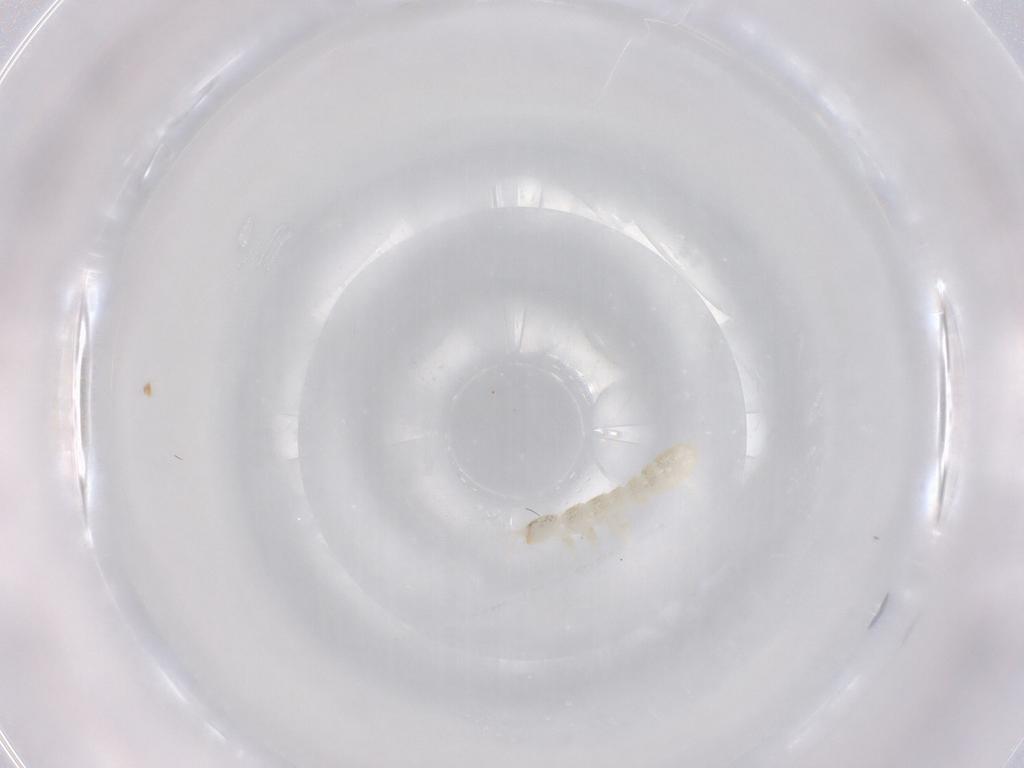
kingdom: Animalia
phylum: Arthropoda
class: Collembola
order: Entomobryomorpha
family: Isotomidae
